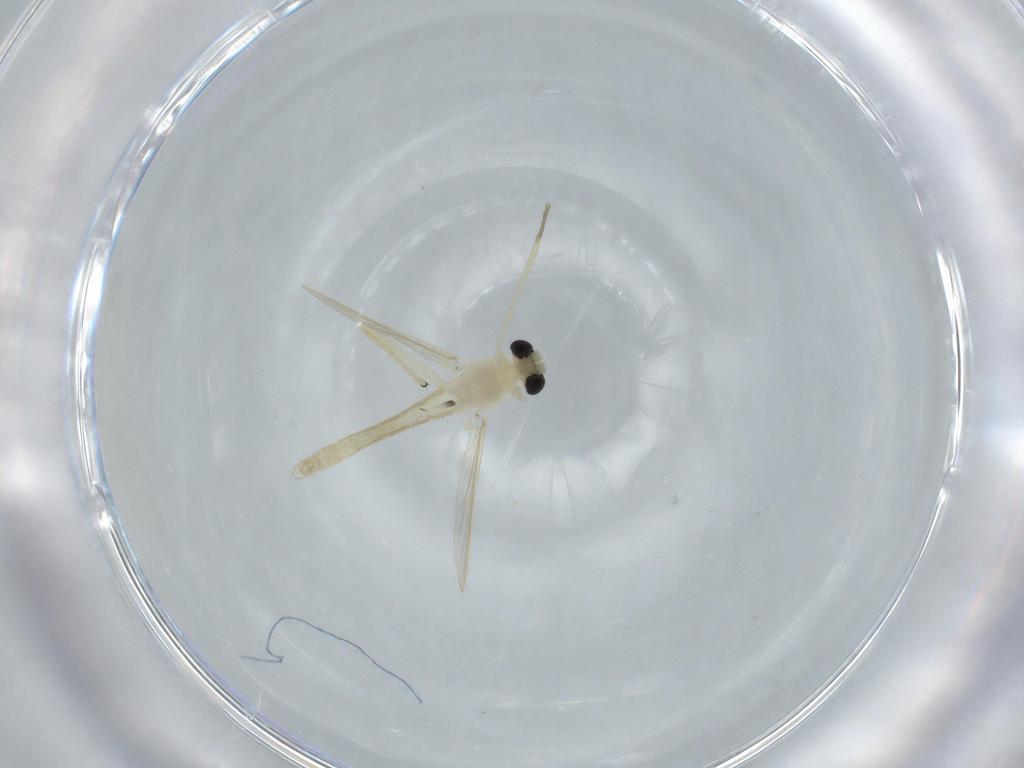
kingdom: Animalia
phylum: Arthropoda
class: Insecta
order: Diptera
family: Chironomidae
